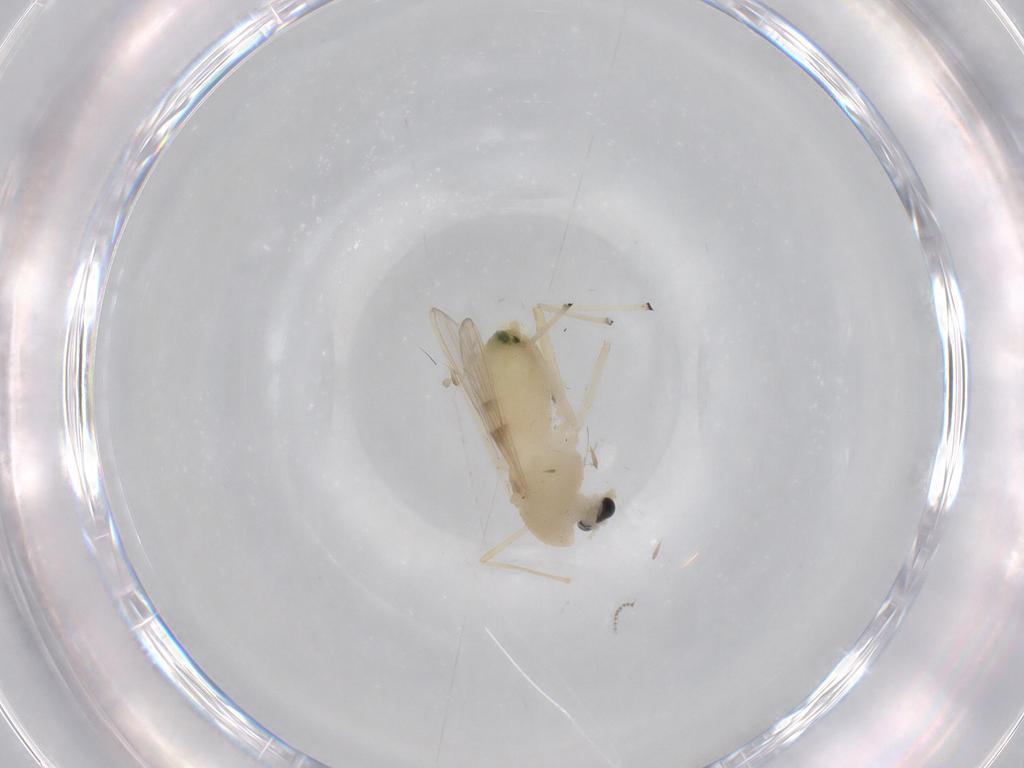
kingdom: Animalia
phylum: Arthropoda
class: Insecta
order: Diptera
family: Chironomidae
